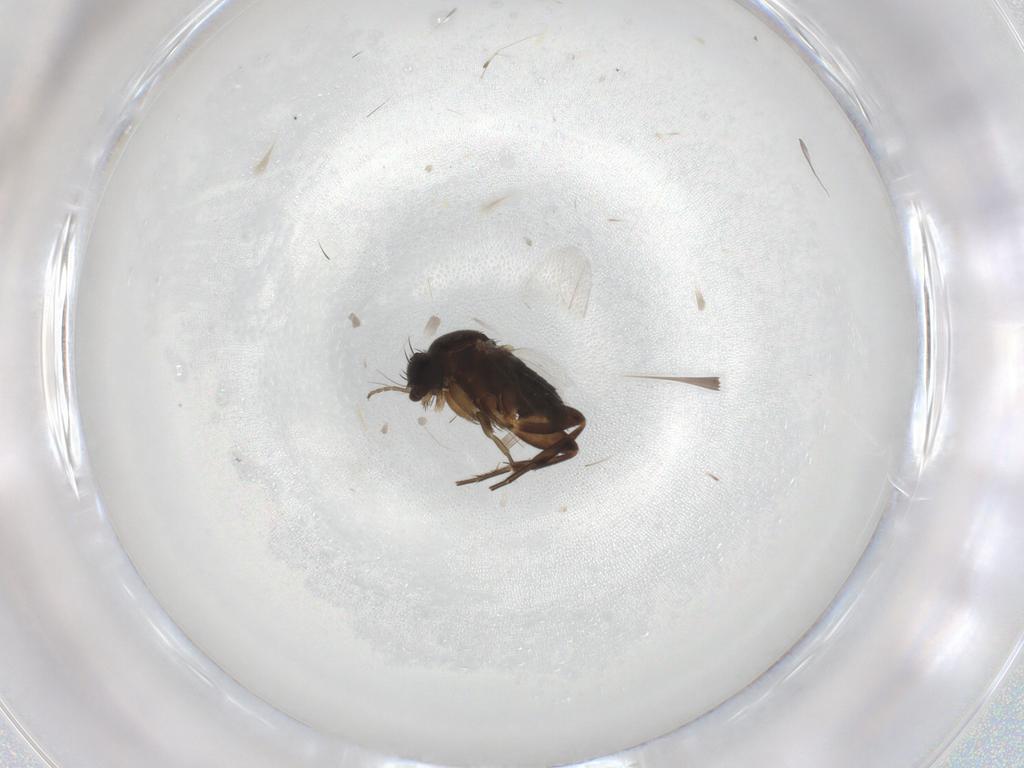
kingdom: Animalia
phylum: Arthropoda
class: Insecta
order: Diptera
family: Phoridae
